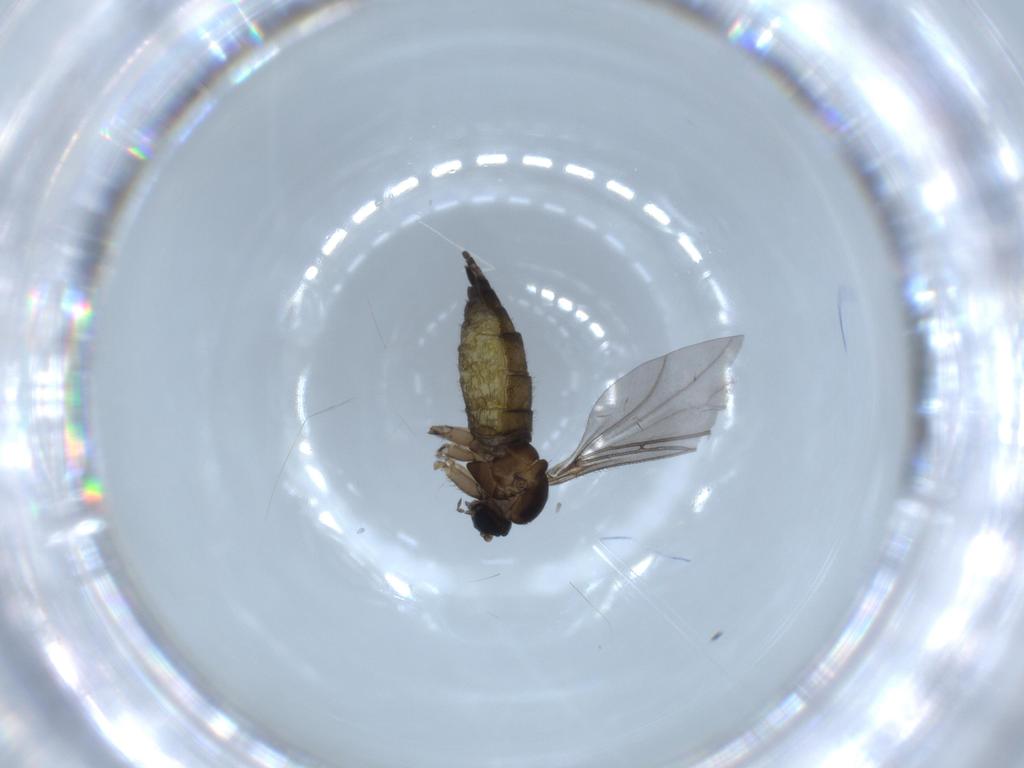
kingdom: Animalia
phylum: Arthropoda
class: Insecta
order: Diptera
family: Sciaridae
